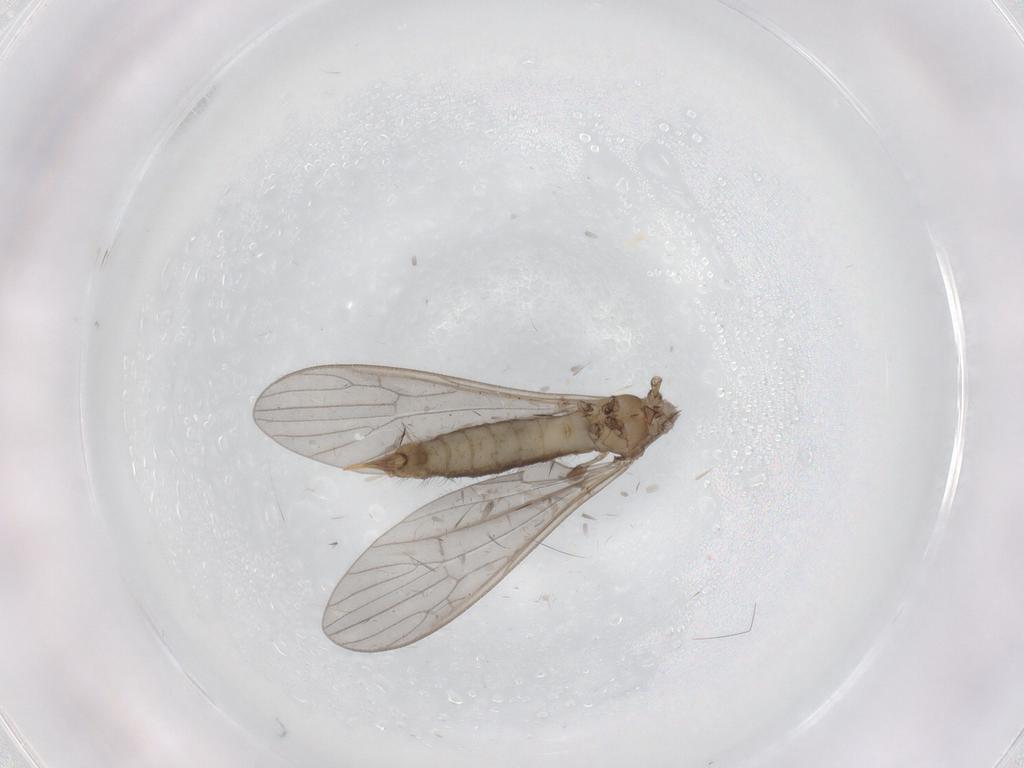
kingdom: Animalia
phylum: Arthropoda
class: Insecta
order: Diptera
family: Limoniidae
